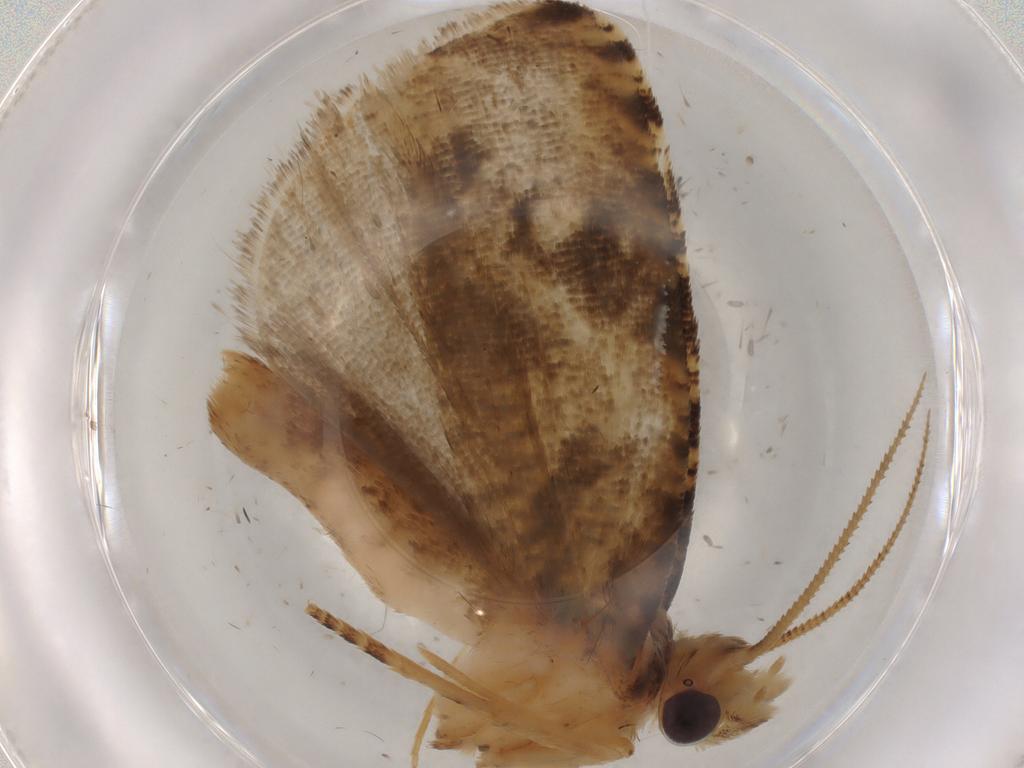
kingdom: Animalia
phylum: Arthropoda
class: Insecta
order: Lepidoptera
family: Tortricidae
